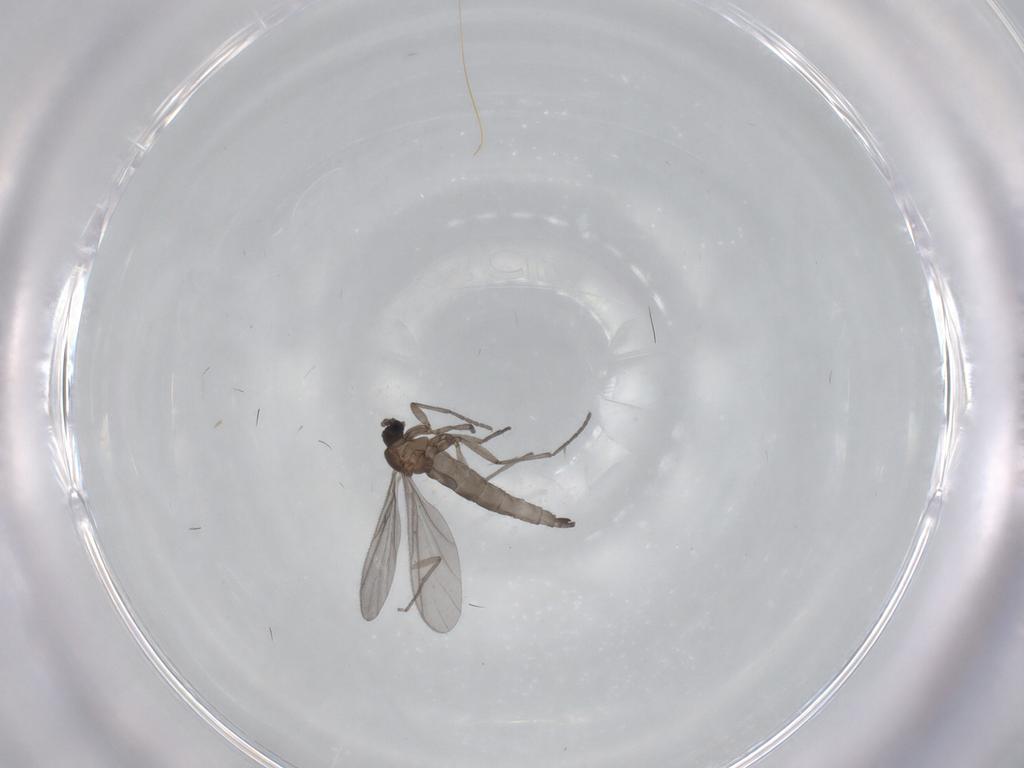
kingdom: Animalia
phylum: Arthropoda
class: Insecta
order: Diptera
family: Sciaridae
